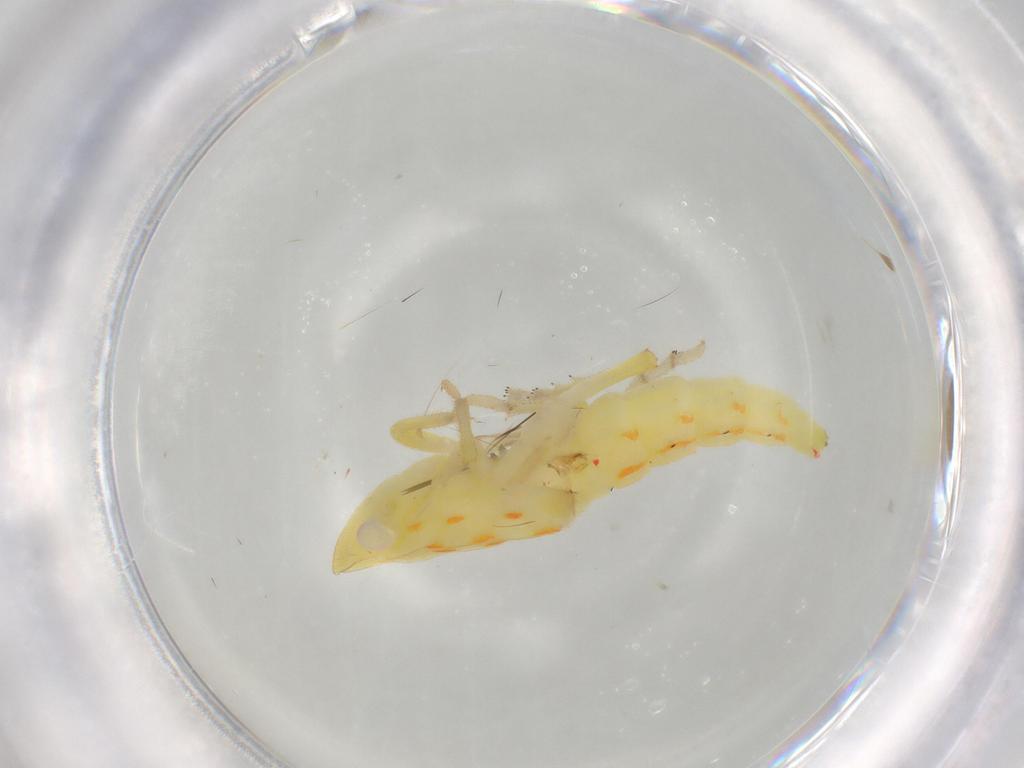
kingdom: Animalia
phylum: Arthropoda
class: Insecta
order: Hemiptera
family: Tropiduchidae
